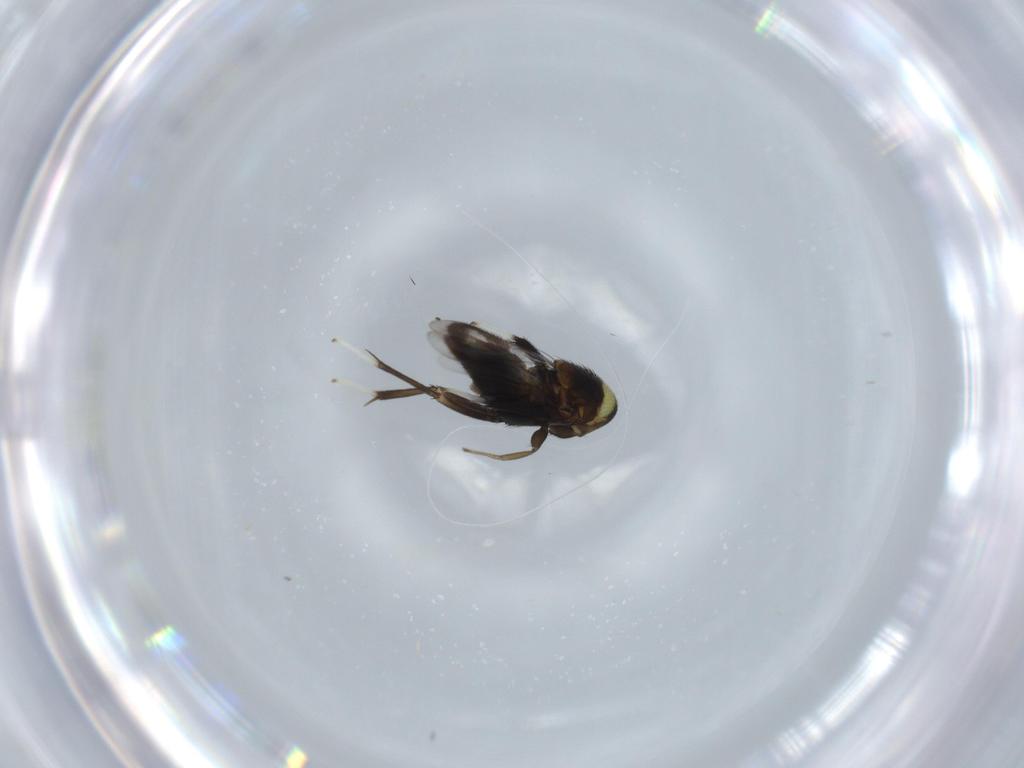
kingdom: Animalia
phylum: Arthropoda
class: Insecta
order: Hymenoptera
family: Aphelinidae
